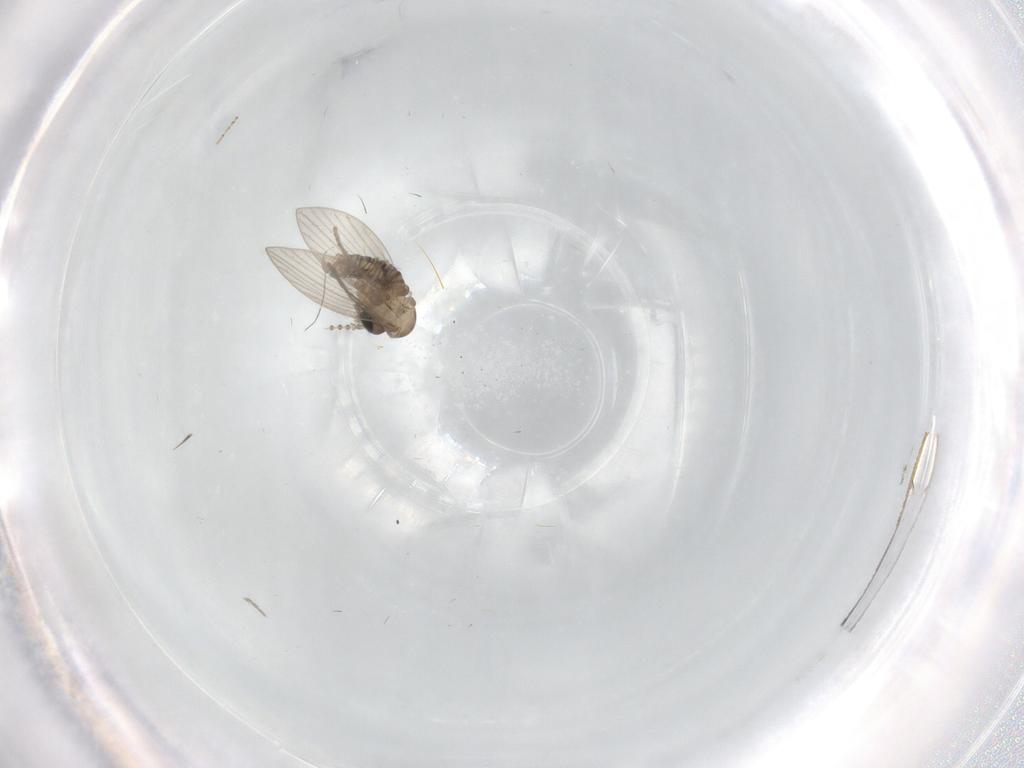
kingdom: Animalia
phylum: Arthropoda
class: Insecta
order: Diptera
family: Psychodidae
